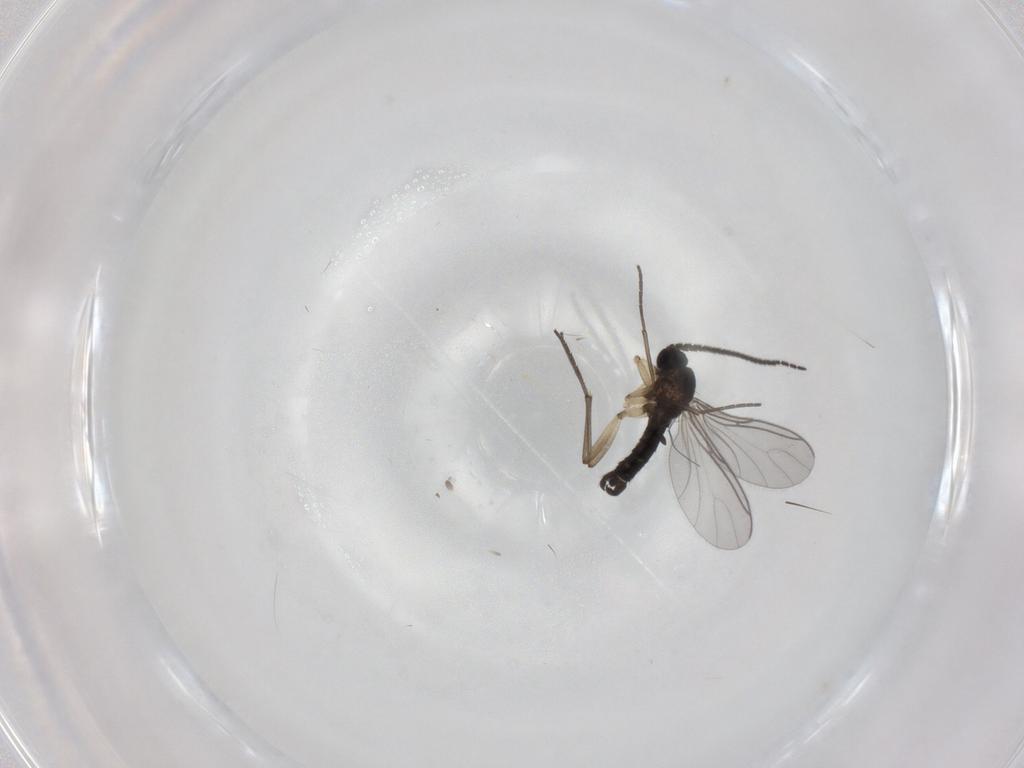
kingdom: Animalia
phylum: Arthropoda
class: Insecta
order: Diptera
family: Sciaridae
